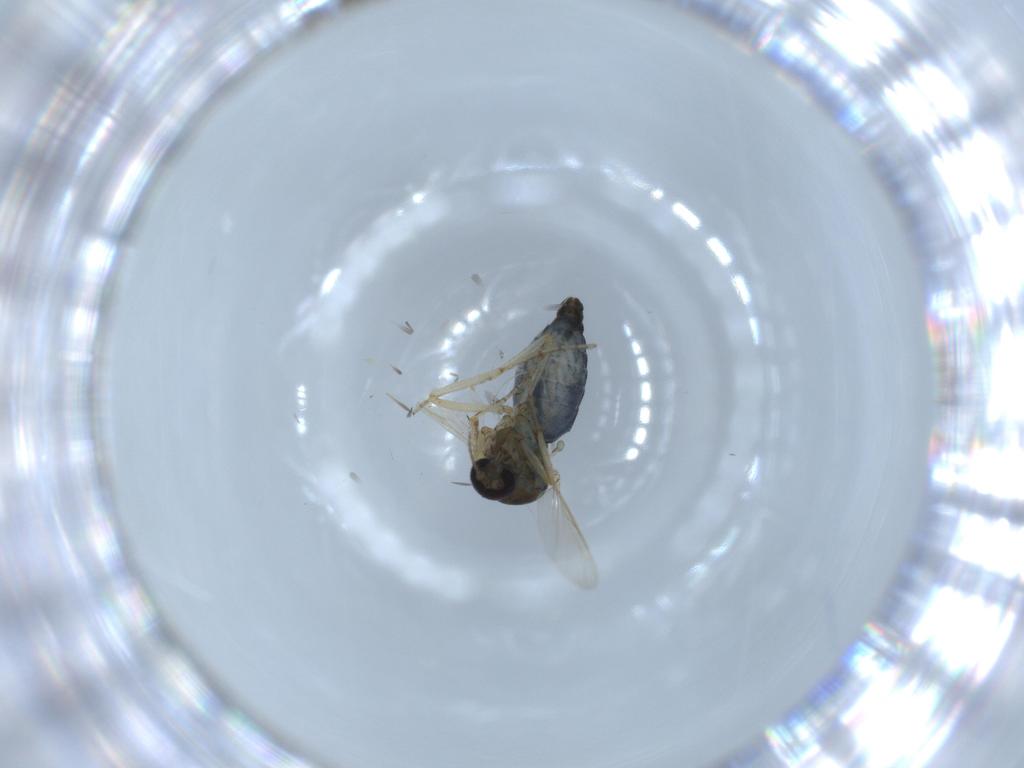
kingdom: Animalia
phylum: Arthropoda
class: Insecta
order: Diptera
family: Ceratopogonidae
